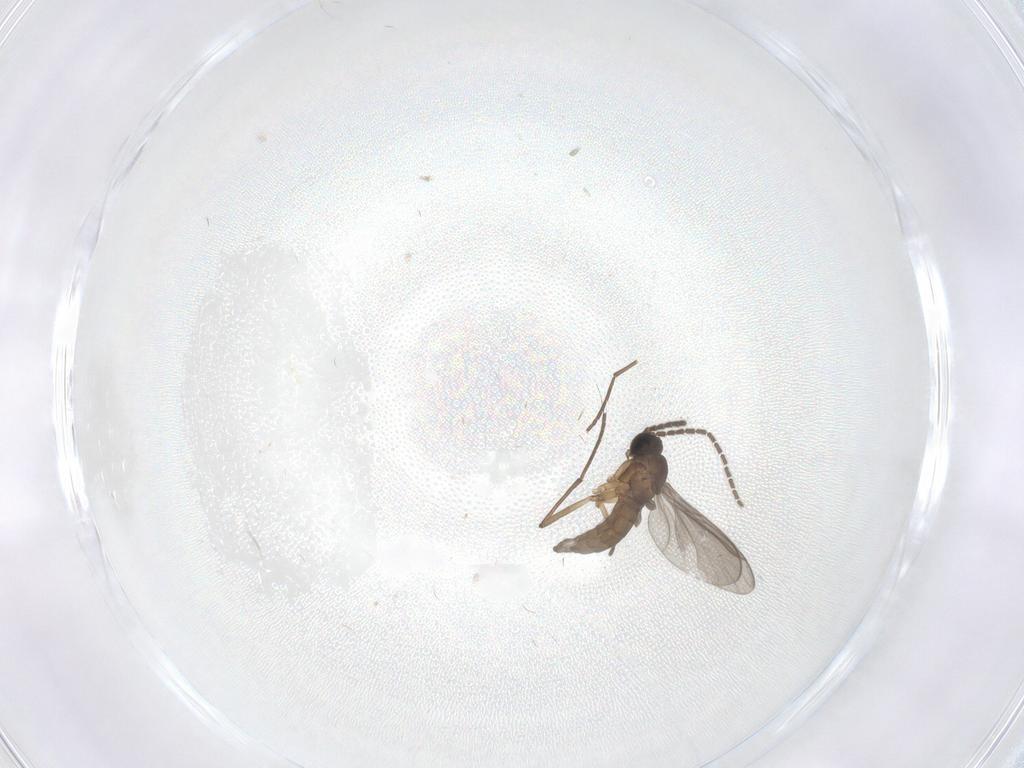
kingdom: Animalia
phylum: Arthropoda
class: Insecta
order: Diptera
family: Sciaridae
